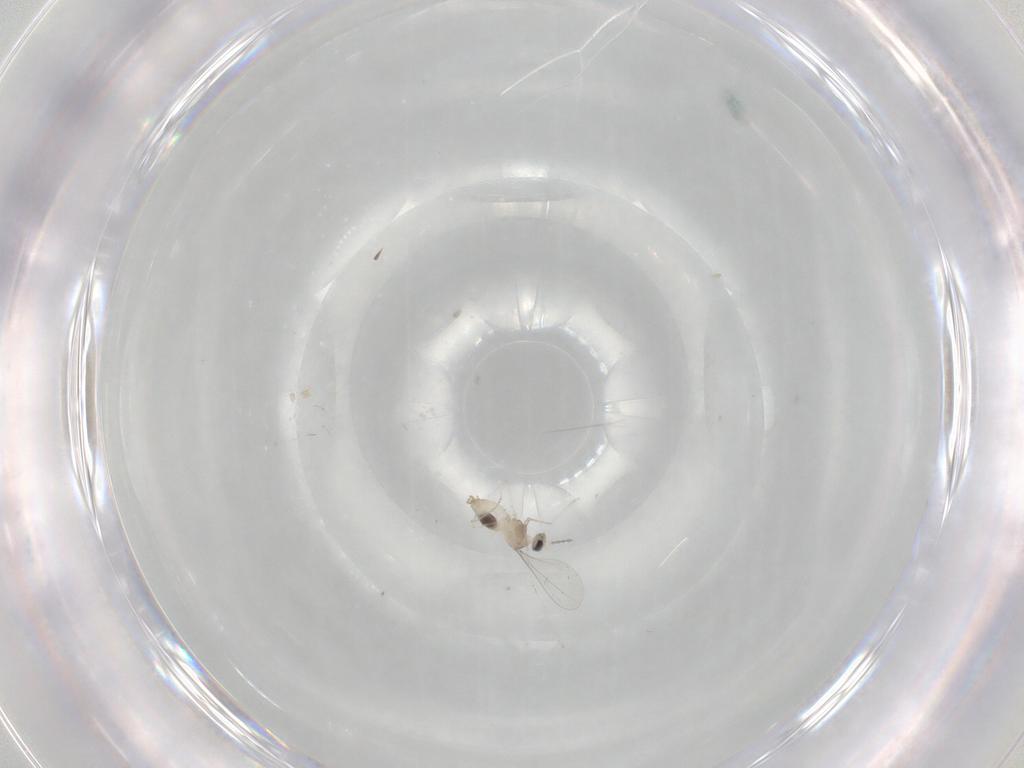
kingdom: Animalia
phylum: Arthropoda
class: Insecta
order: Diptera
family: Cecidomyiidae
